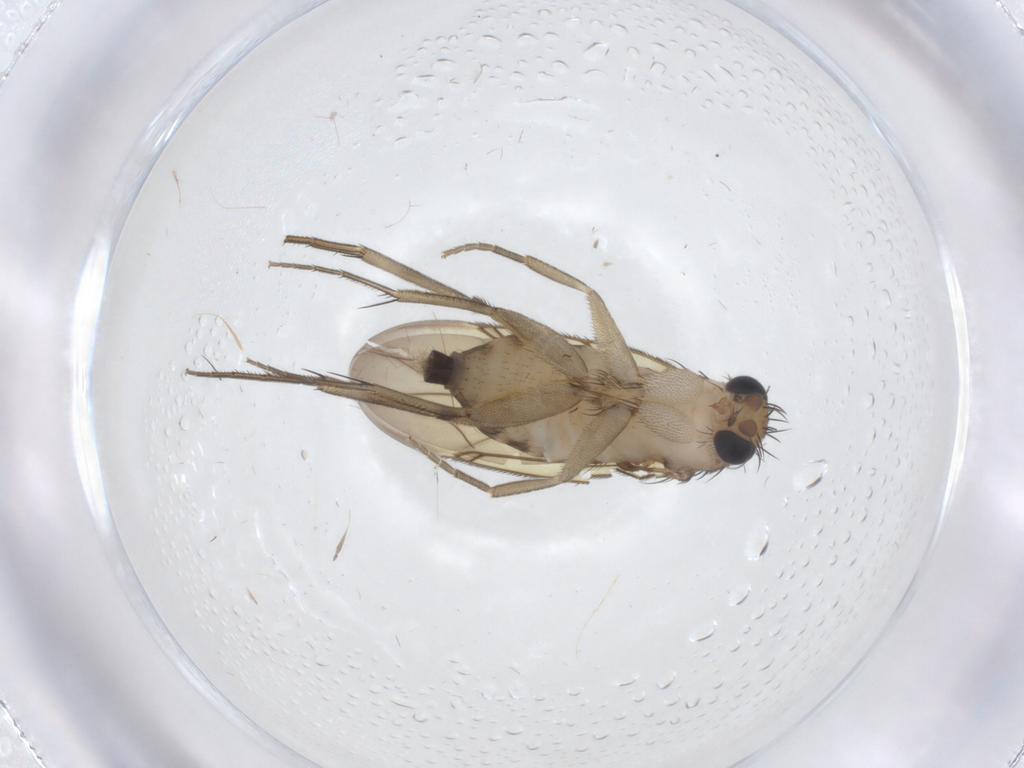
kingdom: Animalia
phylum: Arthropoda
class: Insecta
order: Diptera
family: Phoridae
